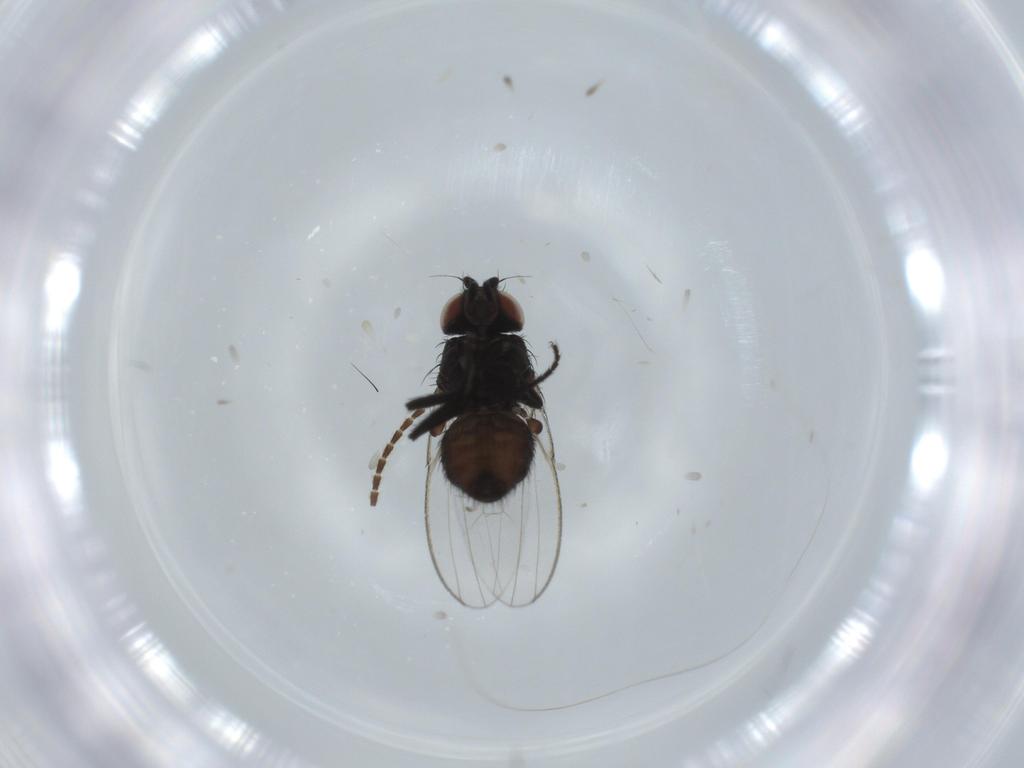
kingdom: Animalia
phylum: Arthropoda
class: Insecta
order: Diptera
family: Milichiidae
